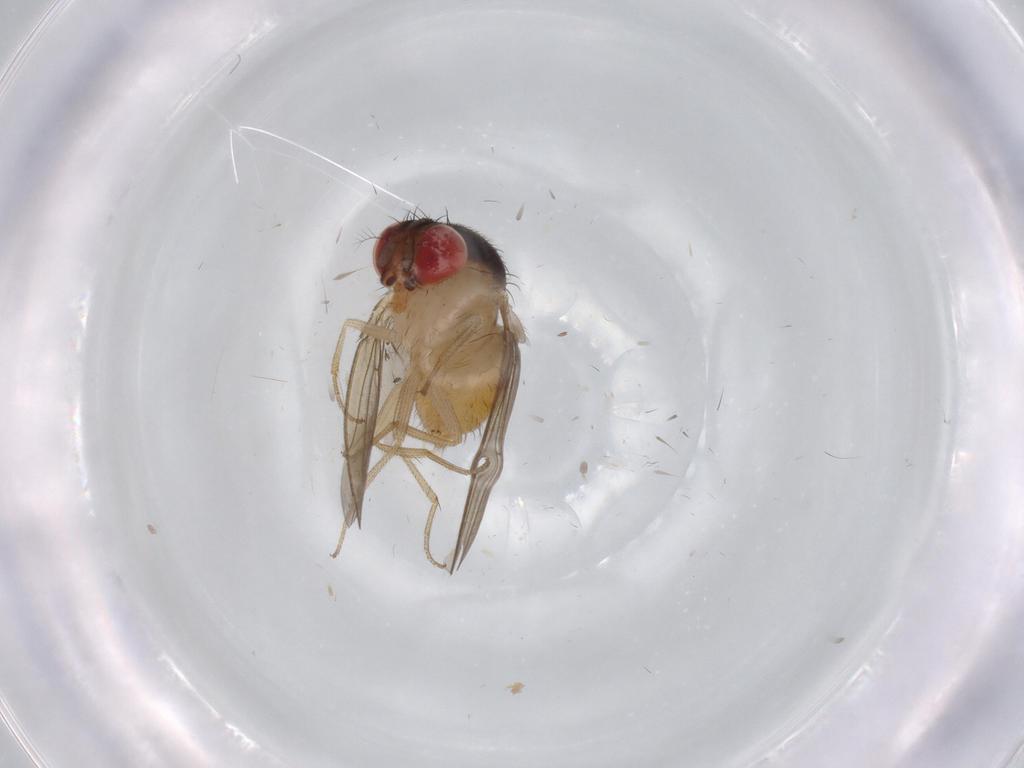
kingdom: Animalia
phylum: Arthropoda
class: Insecta
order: Diptera
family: Drosophilidae
